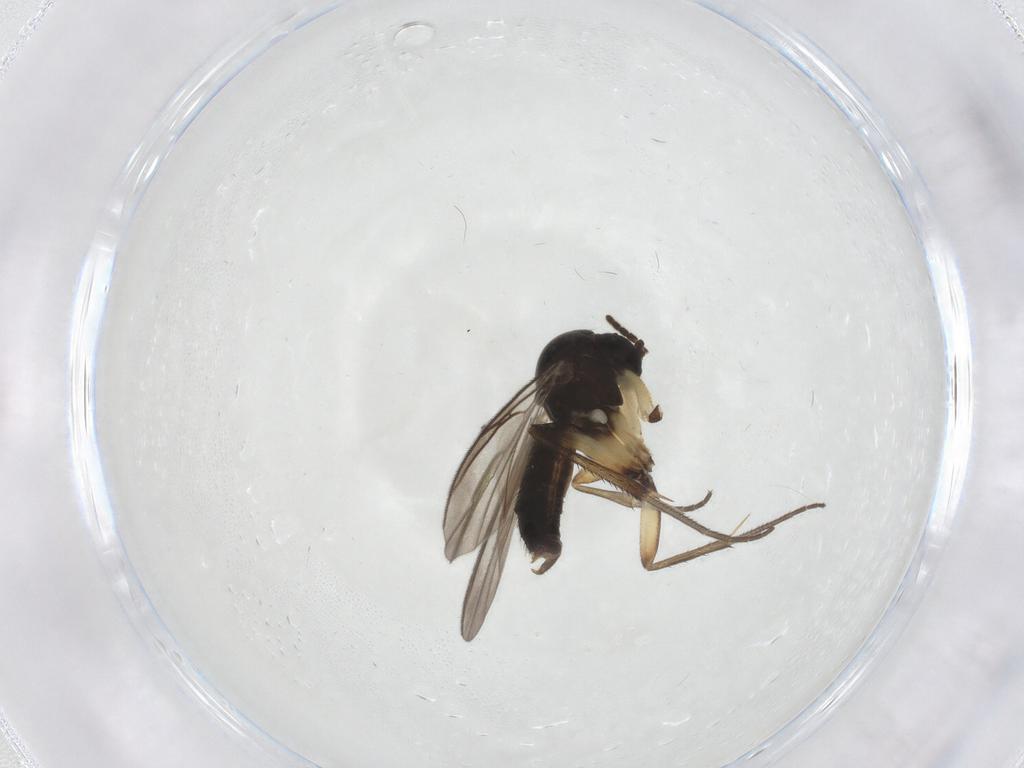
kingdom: Animalia
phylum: Arthropoda
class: Insecta
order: Diptera
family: Mycetophilidae
